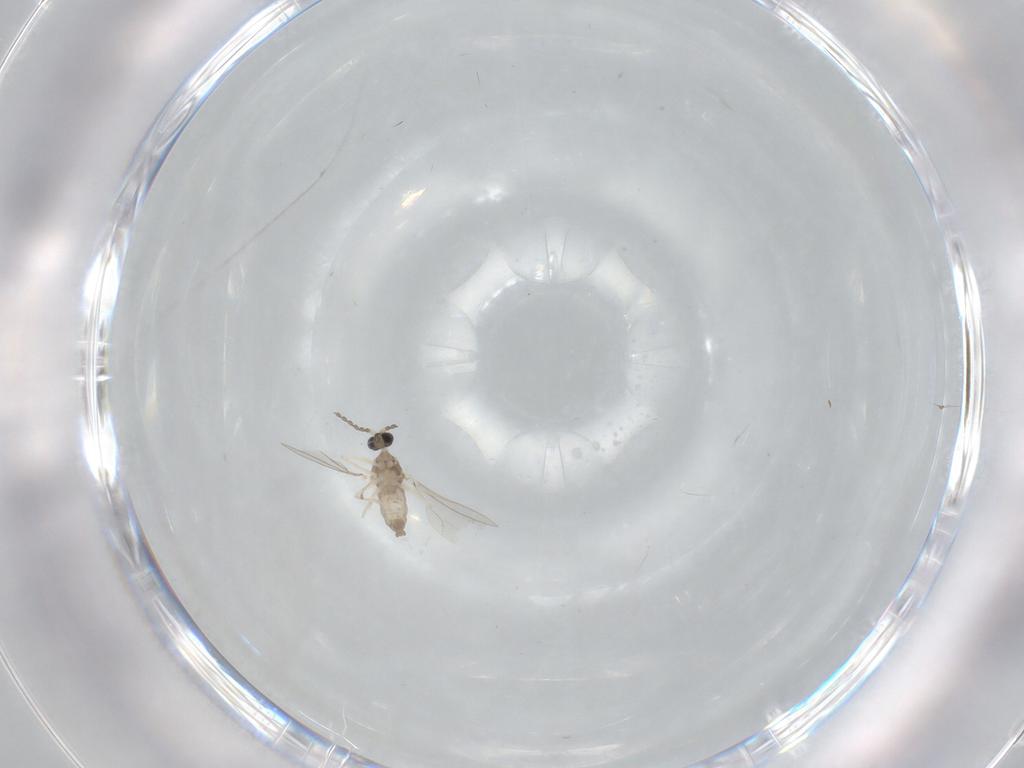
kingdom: Animalia
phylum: Arthropoda
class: Insecta
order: Diptera
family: Cecidomyiidae
